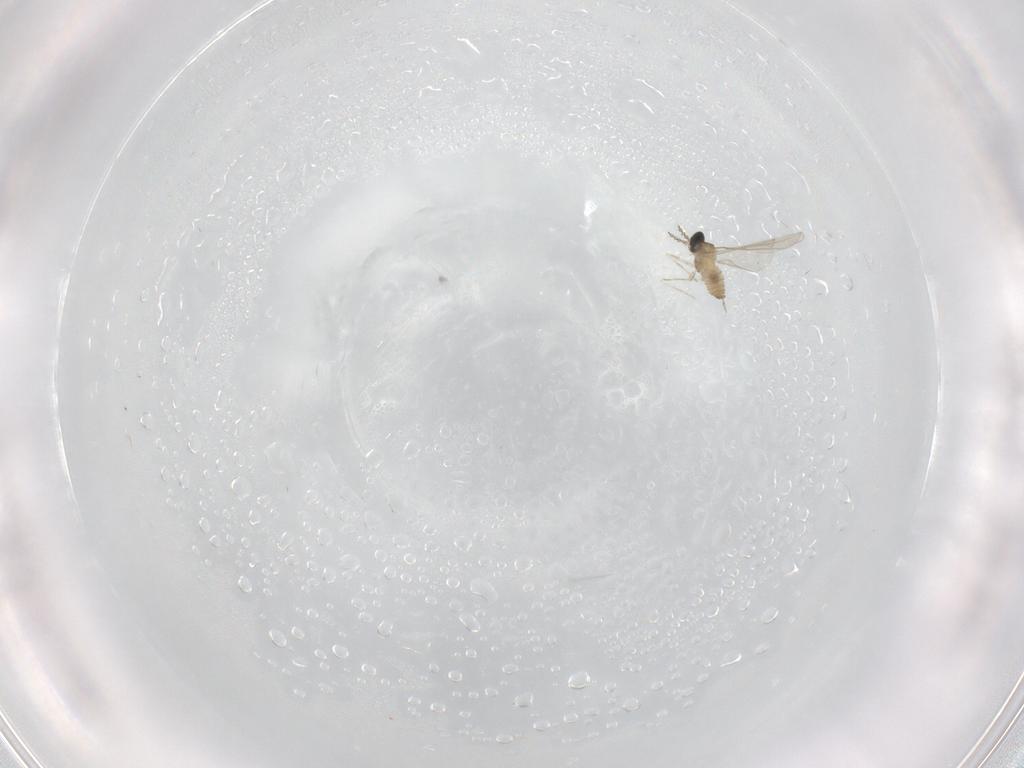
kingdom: Animalia
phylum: Arthropoda
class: Insecta
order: Diptera
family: Cecidomyiidae
